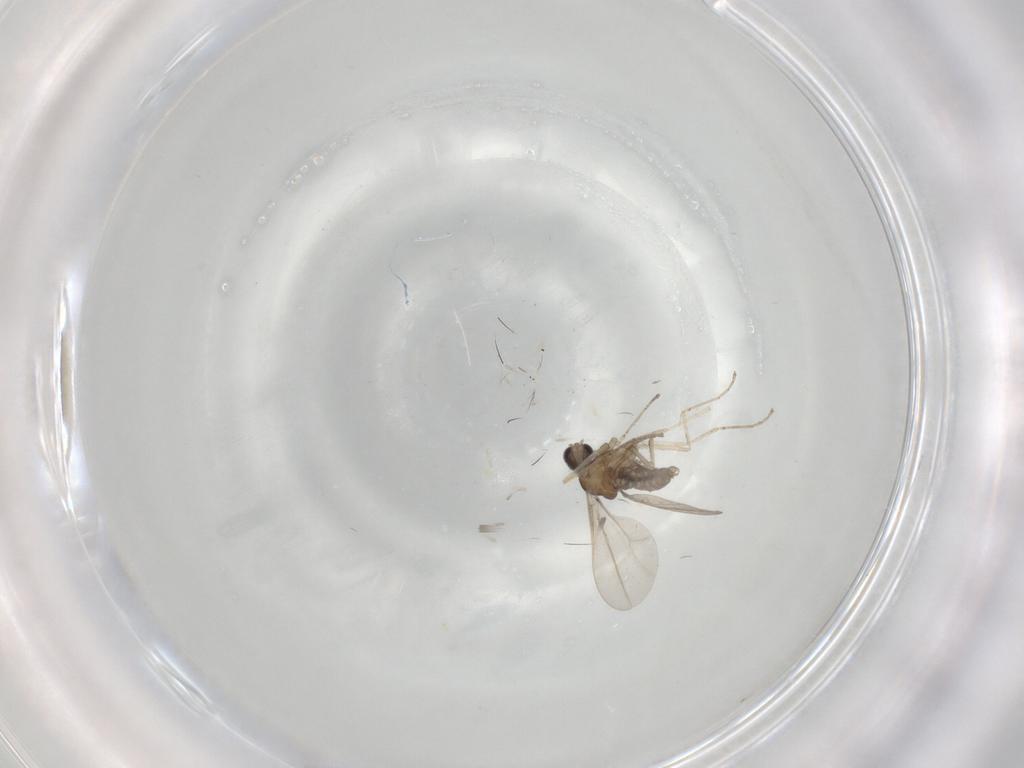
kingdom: Animalia
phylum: Arthropoda
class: Insecta
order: Diptera
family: Cecidomyiidae
